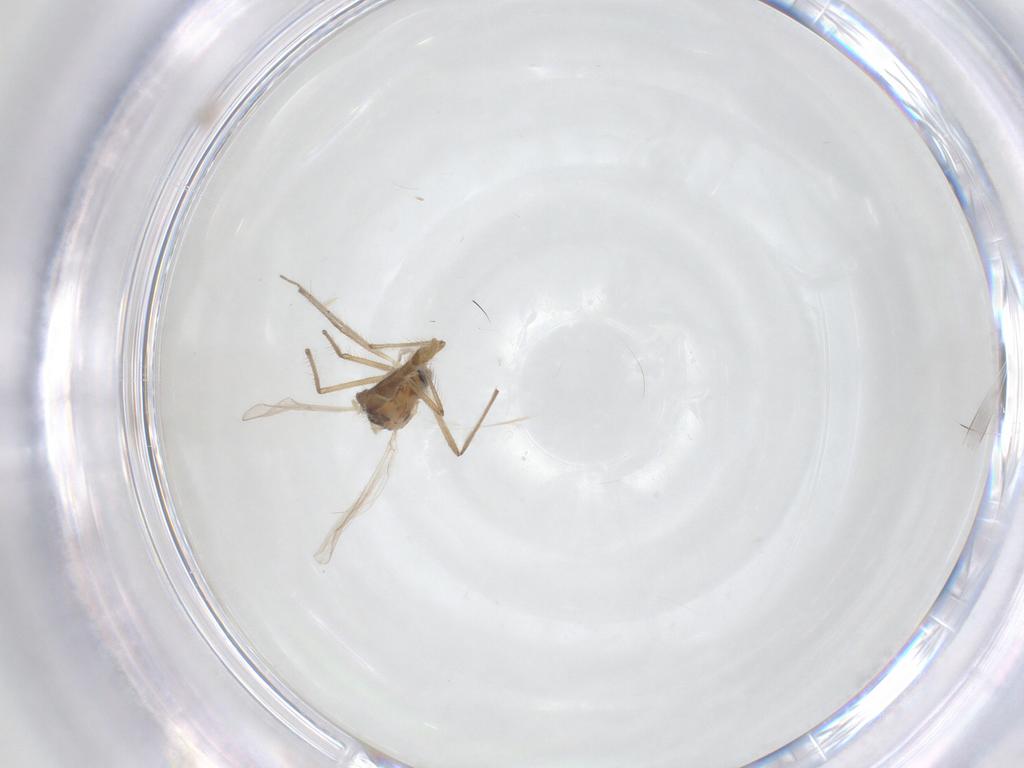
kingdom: Animalia
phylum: Arthropoda
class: Insecta
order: Diptera
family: Chironomidae
